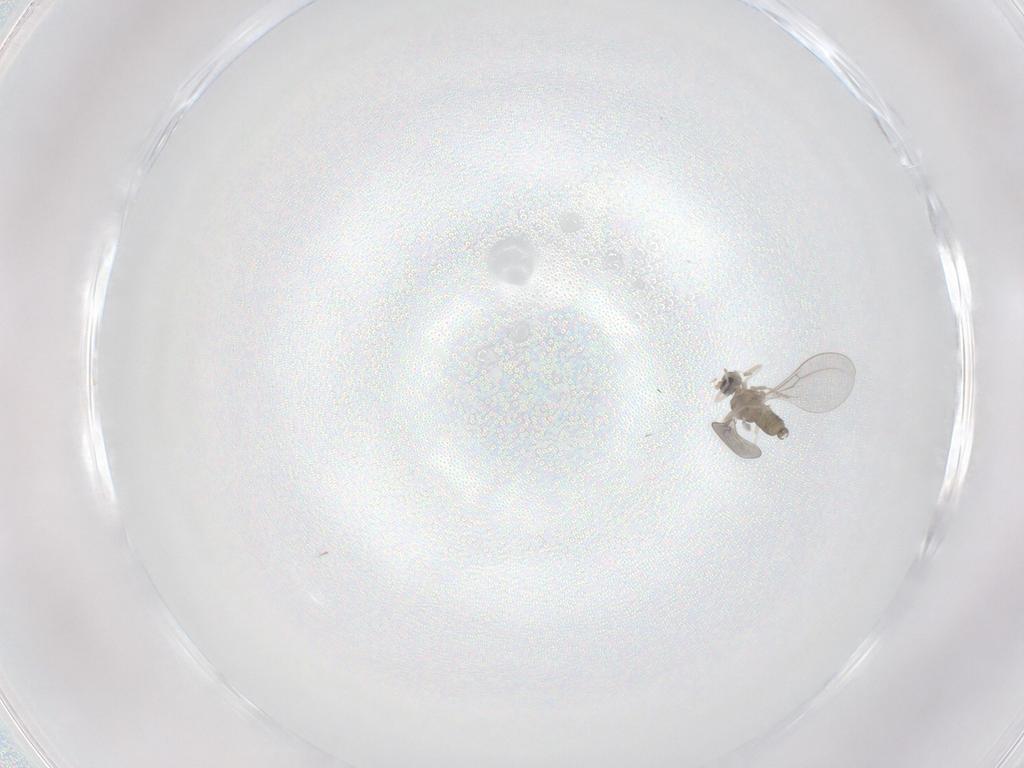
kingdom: Animalia
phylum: Arthropoda
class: Insecta
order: Diptera
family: Cecidomyiidae
